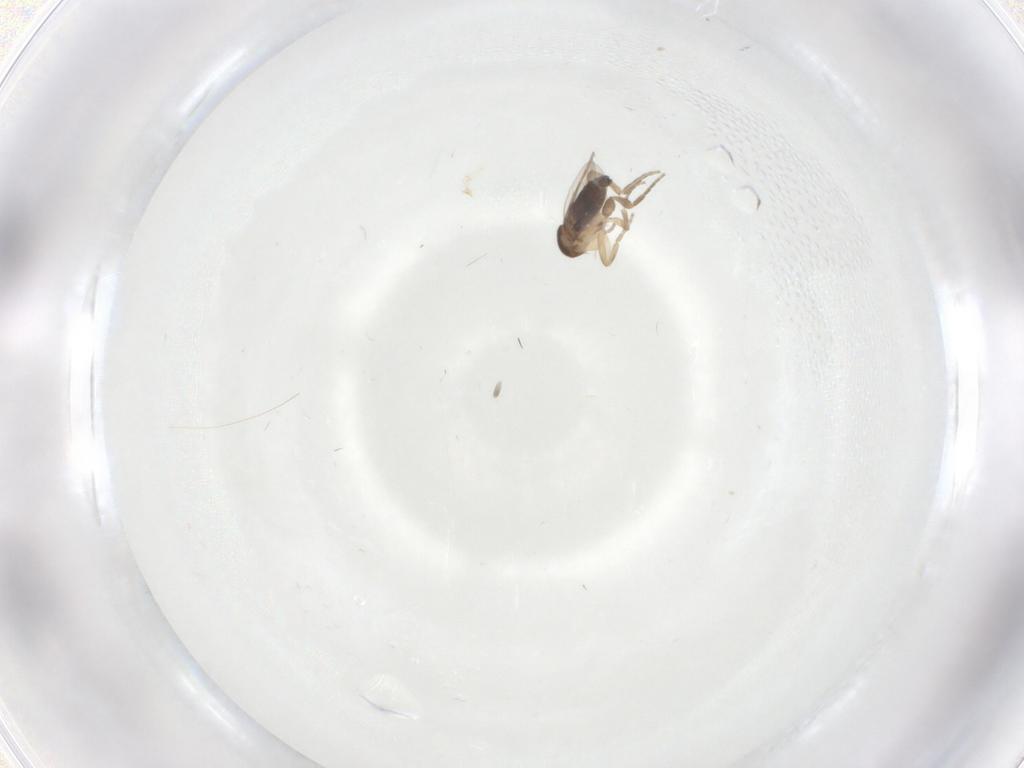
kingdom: Animalia
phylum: Arthropoda
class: Insecta
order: Diptera
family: Phoridae
